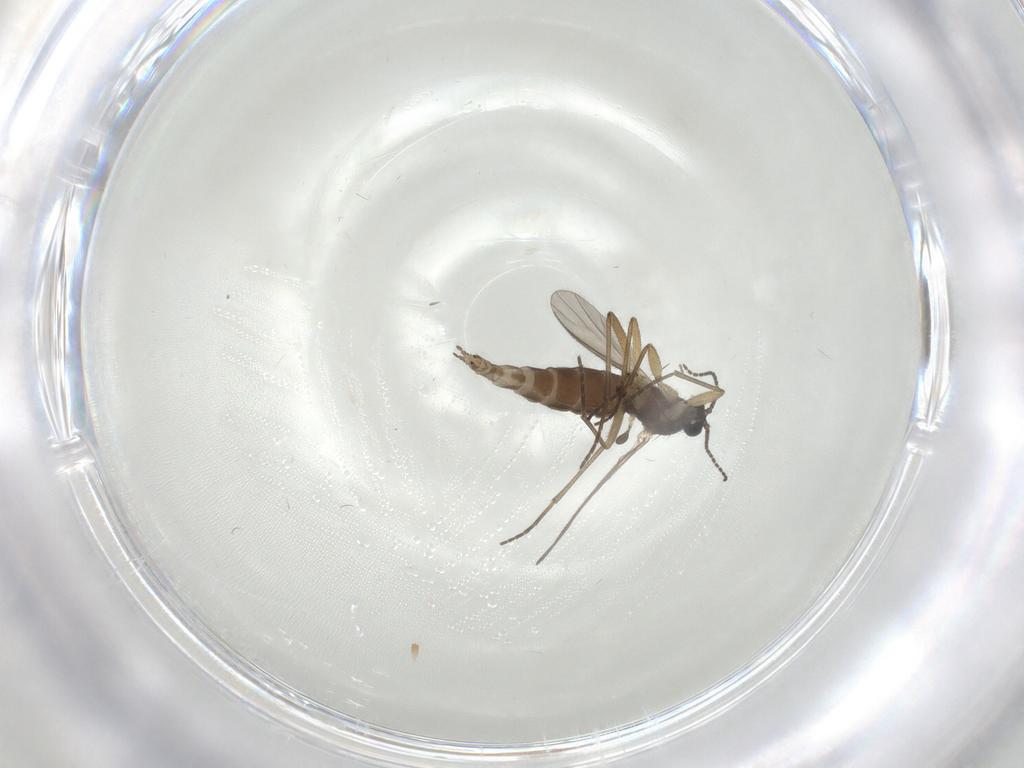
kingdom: Animalia
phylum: Arthropoda
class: Insecta
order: Diptera
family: Sciaridae
